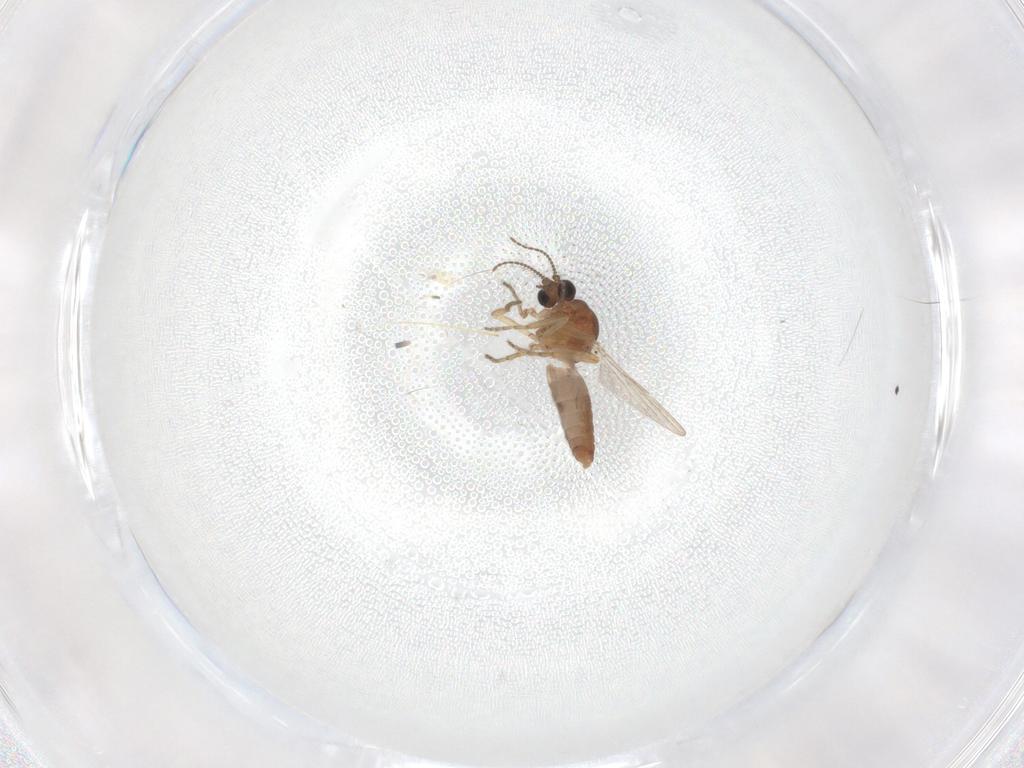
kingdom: Animalia
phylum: Arthropoda
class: Insecta
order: Diptera
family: Ceratopogonidae
